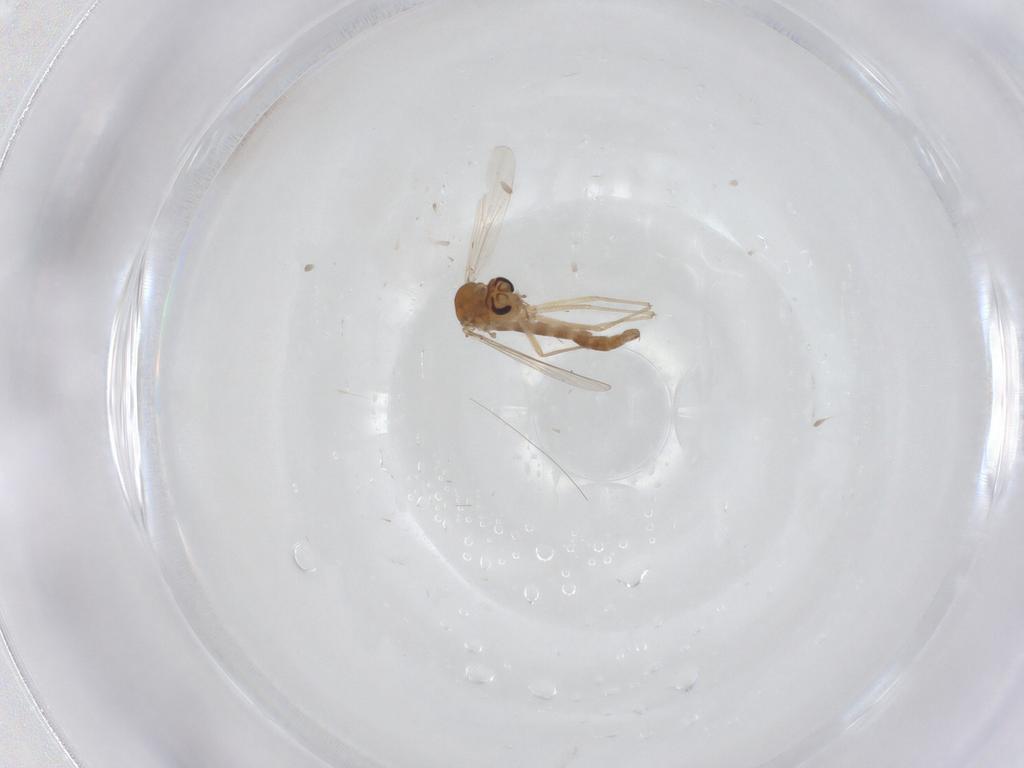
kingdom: Animalia
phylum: Arthropoda
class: Insecta
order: Diptera
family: Chironomidae
